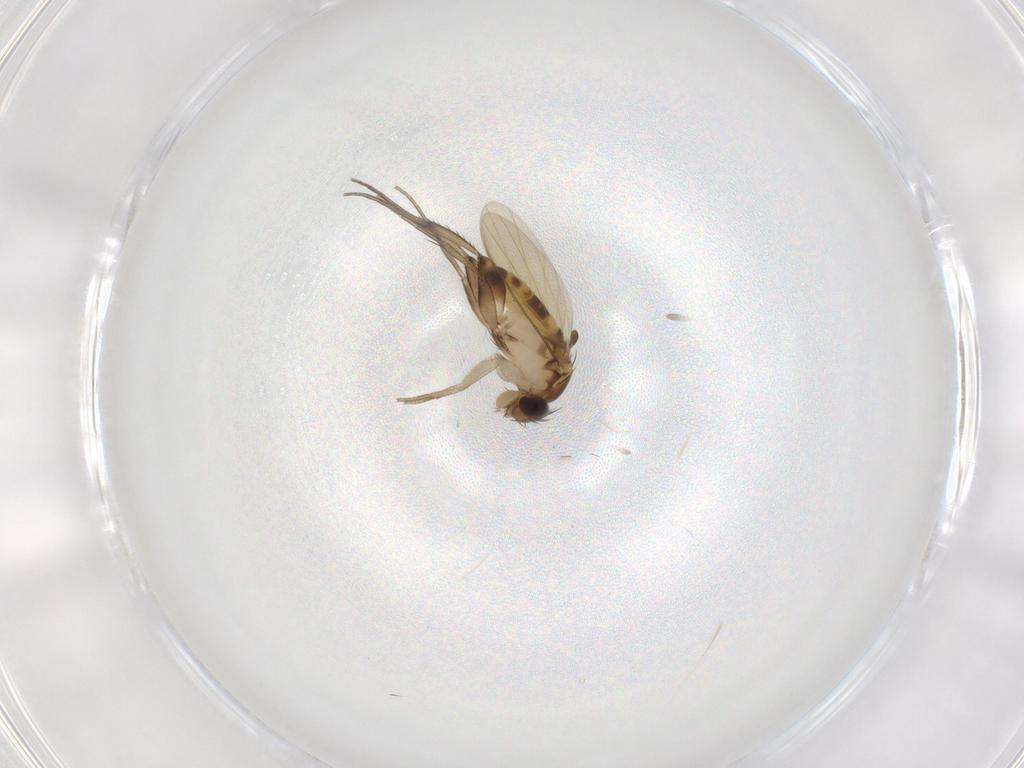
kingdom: Animalia
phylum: Arthropoda
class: Insecta
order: Diptera
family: Phoridae
